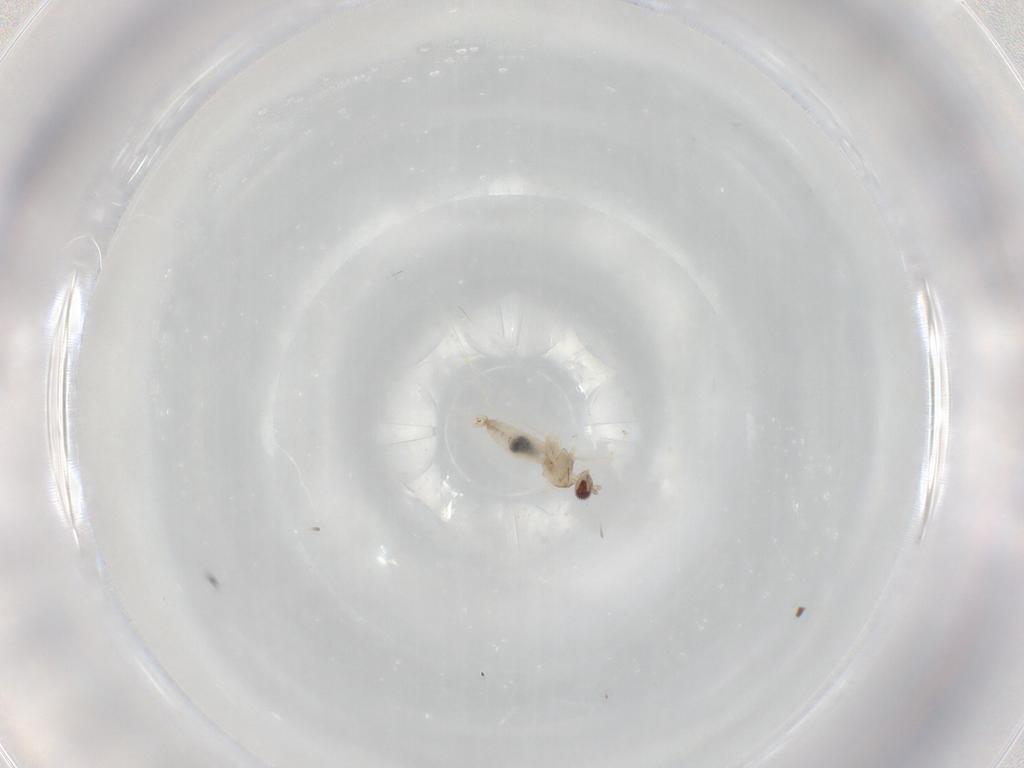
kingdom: Animalia
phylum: Arthropoda
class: Insecta
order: Diptera
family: Cecidomyiidae
